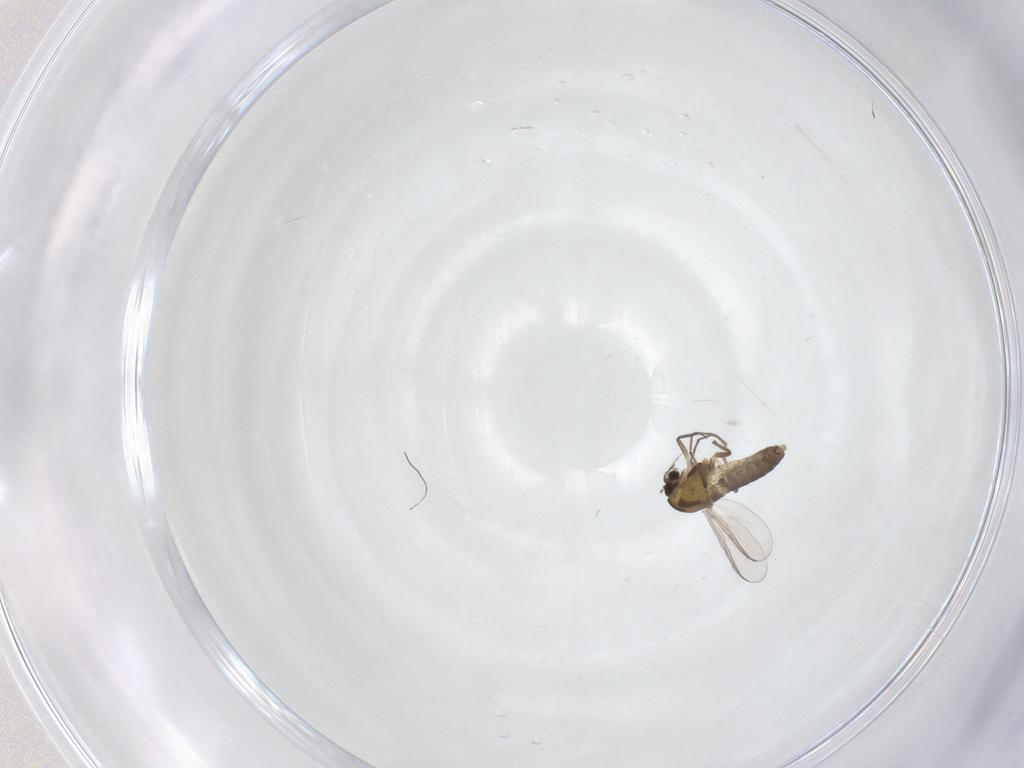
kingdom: Animalia
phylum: Arthropoda
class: Insecta
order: Diptera
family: Chironomidae
